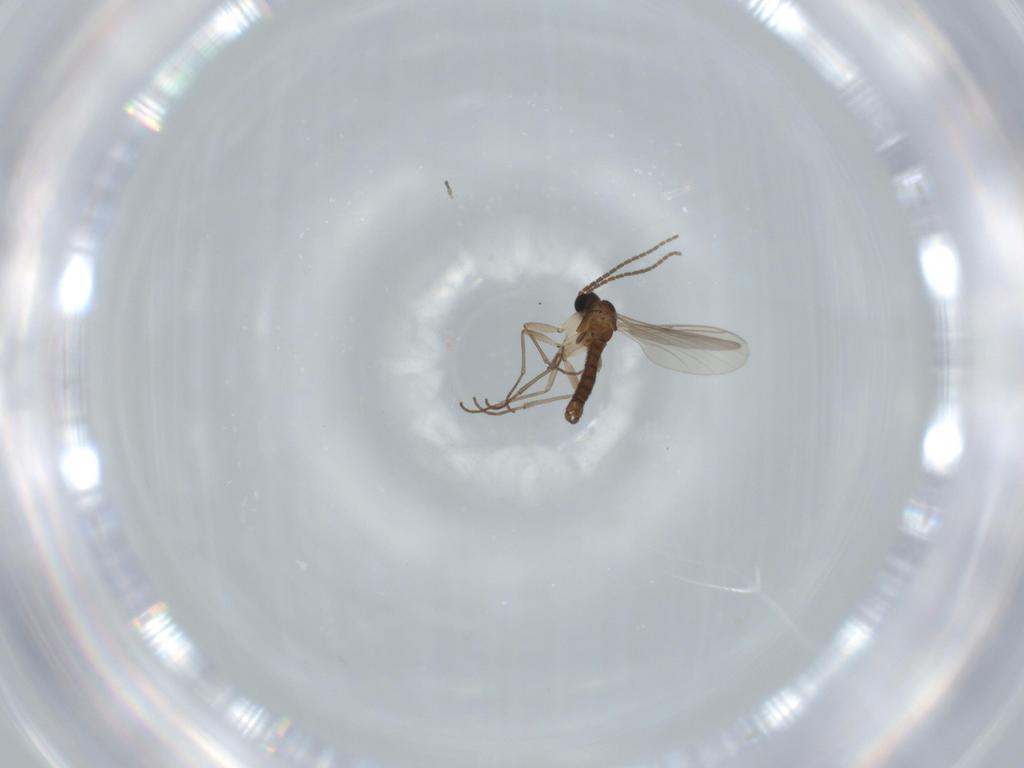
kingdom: Animalia
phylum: Arthropoda
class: Insecta
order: Diptera
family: Sciaridae
